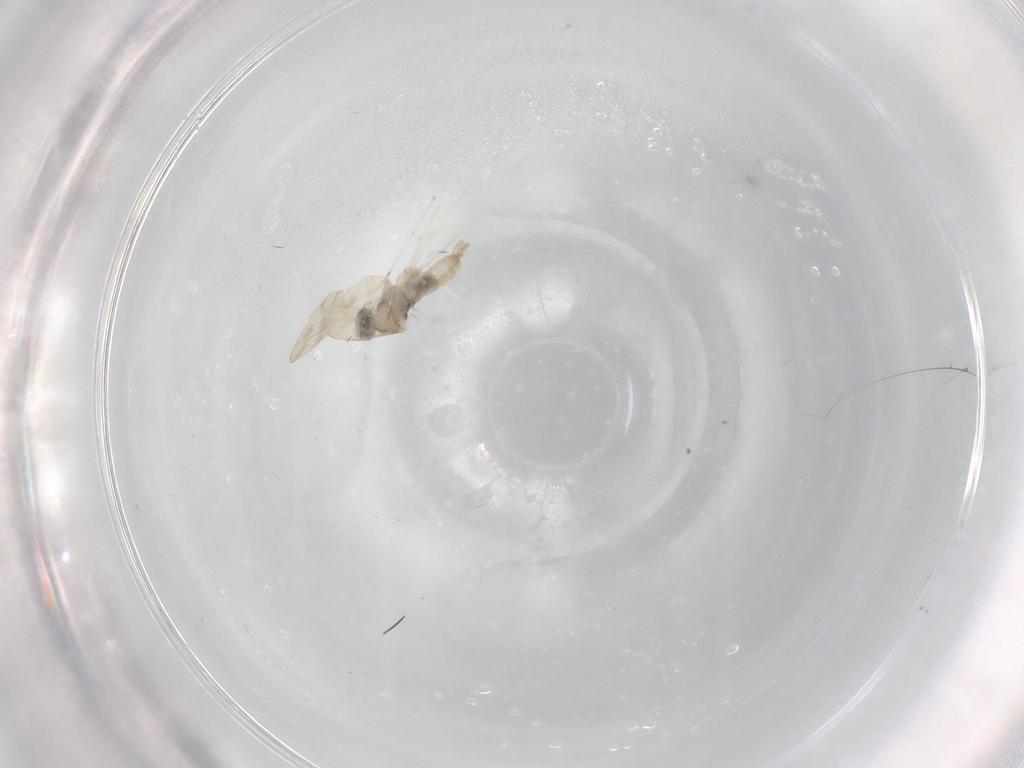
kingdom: Animalia
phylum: Arthropoda
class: Insecta
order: Diptera
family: Cecidomyiidae
